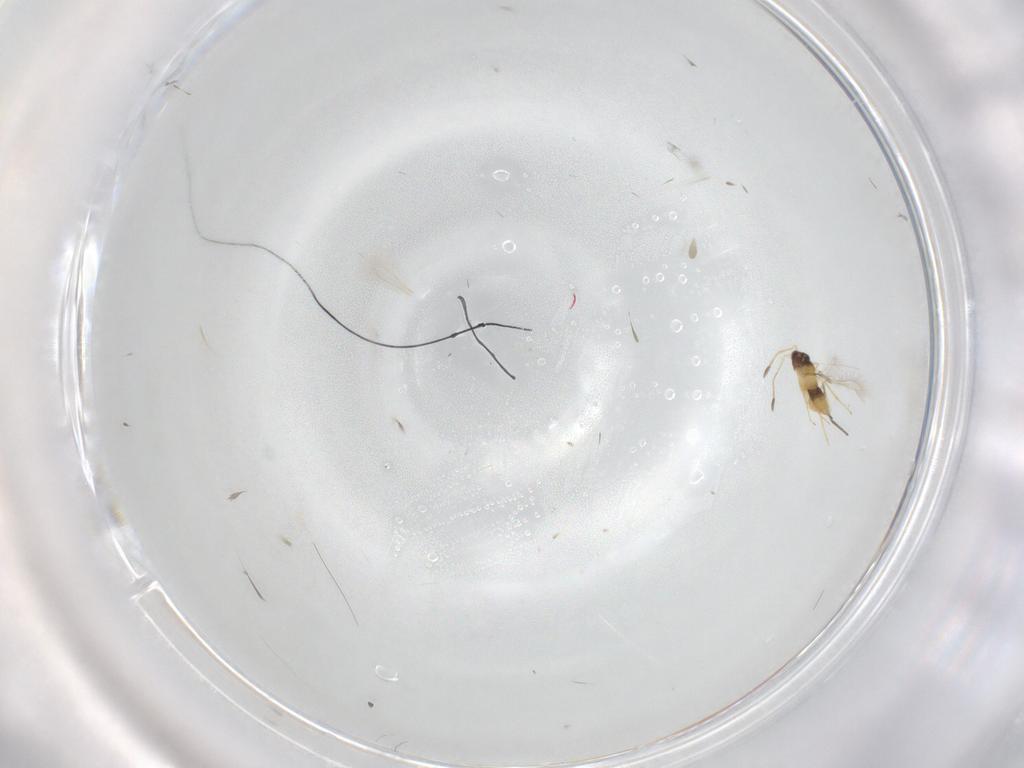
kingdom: Animalia
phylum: Arthropoda
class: Insecta
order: Hymenoptera
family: Mymaridae
